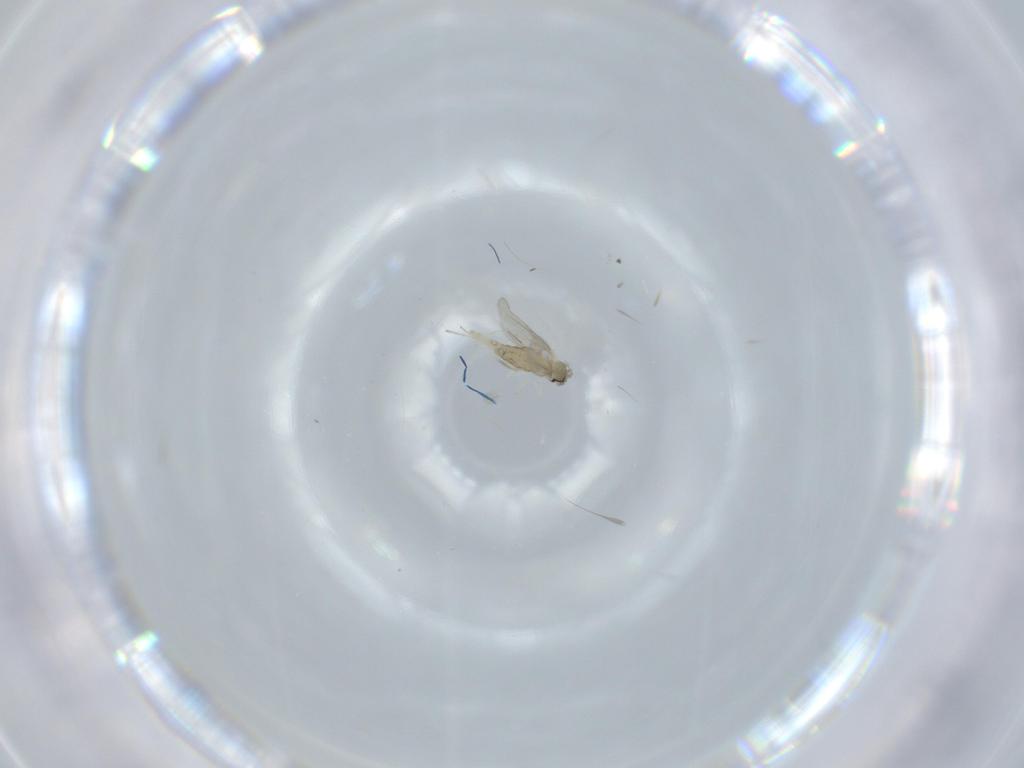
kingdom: Animalia
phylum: Arthropoda
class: Insecta
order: Diptera
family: Cecidomyiidae
